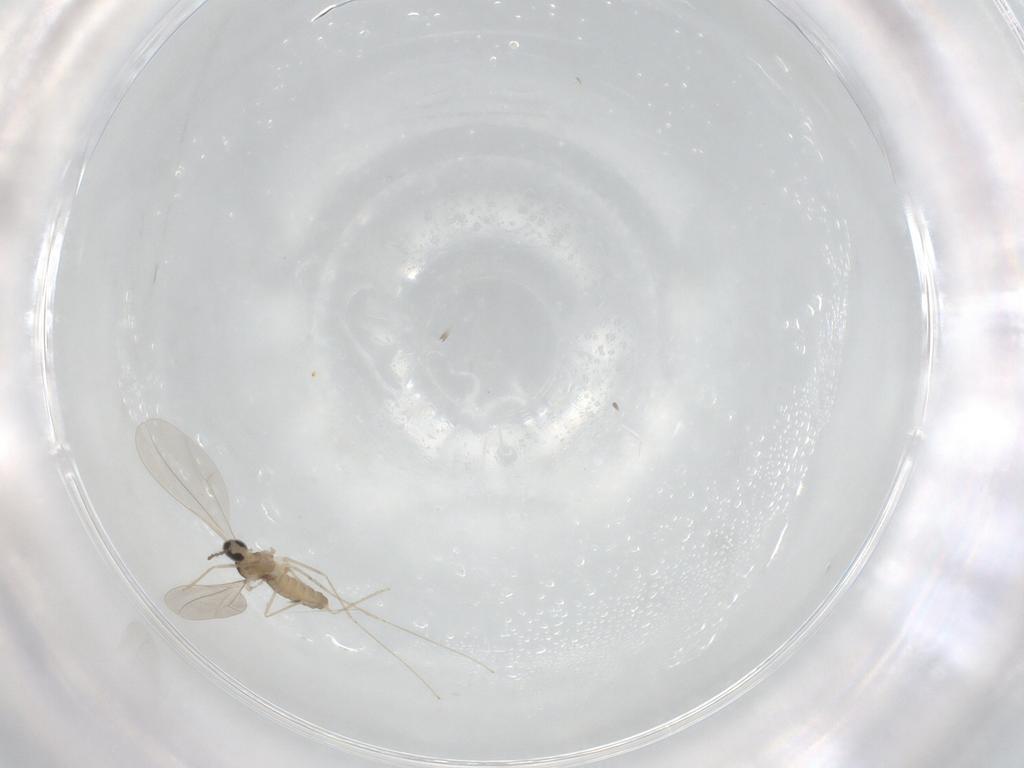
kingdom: Animalia
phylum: Arthropoda
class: Insecta
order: Diptera
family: Cecidomyiidae
